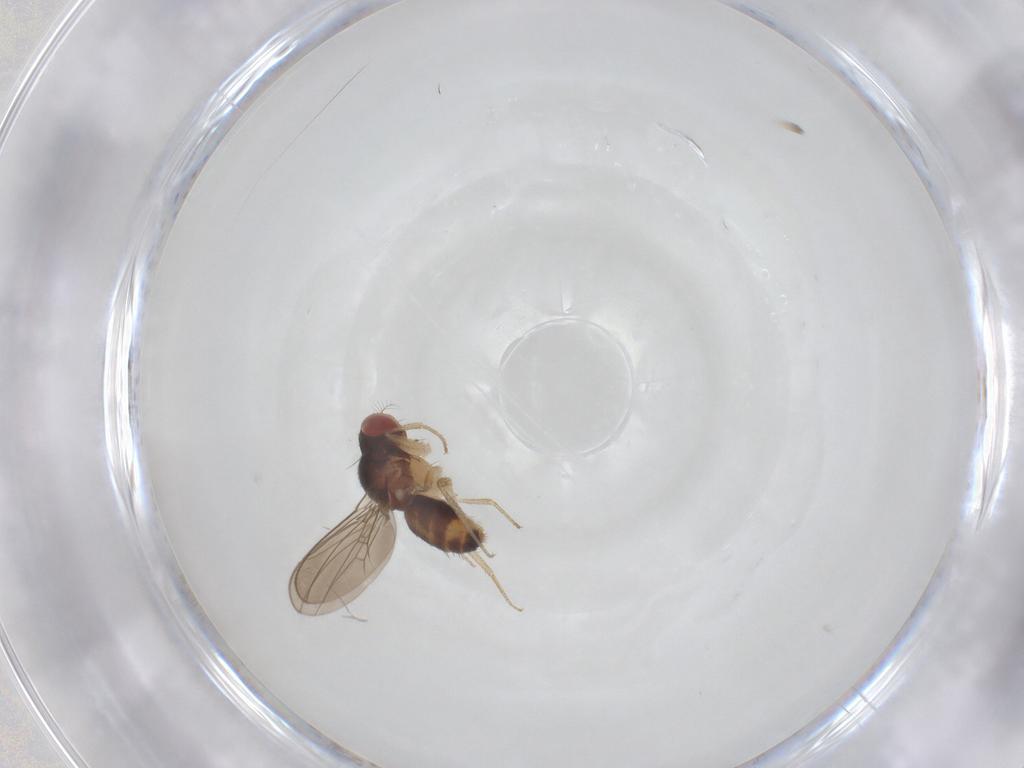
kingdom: Animalia
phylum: Arthropoda
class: Insecta
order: Diptera
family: Drosophilidae
